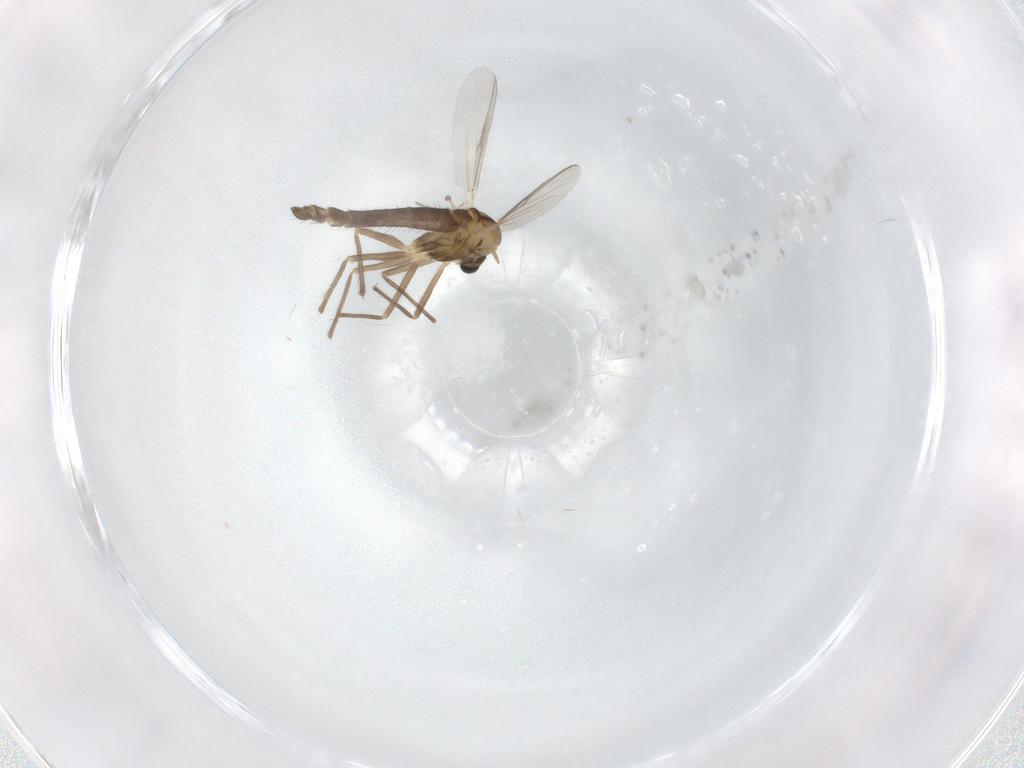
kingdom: Animalia
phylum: Arthropoda
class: Insecta
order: Diptera
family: Chironomidae
